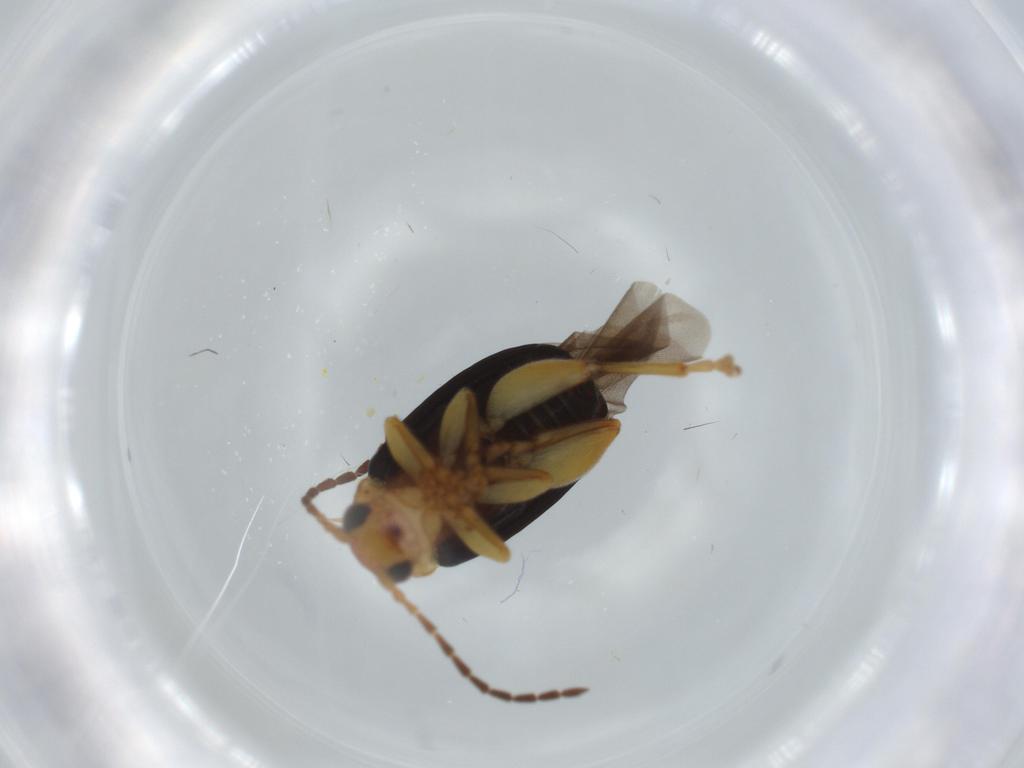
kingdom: Animalia
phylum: Arthropoda
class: Insecta
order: Coleoptera
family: Chrysomelidae
